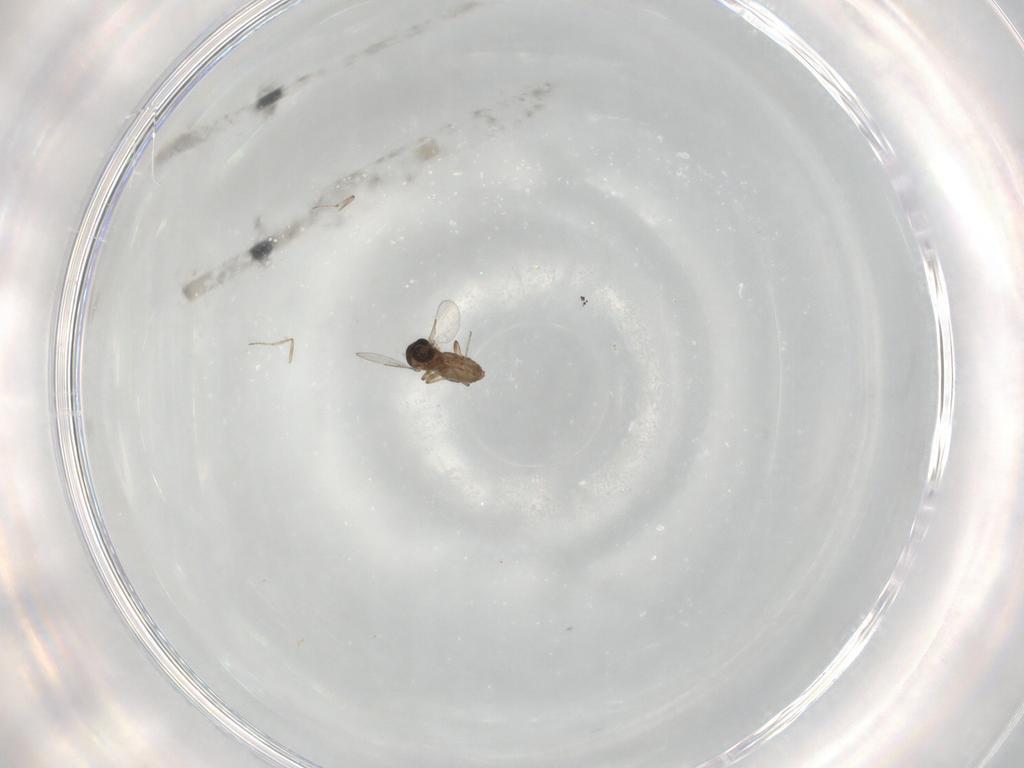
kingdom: Animalia
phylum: Arthropoda
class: Insecta
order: Diptera
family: Ceratopogonidae
